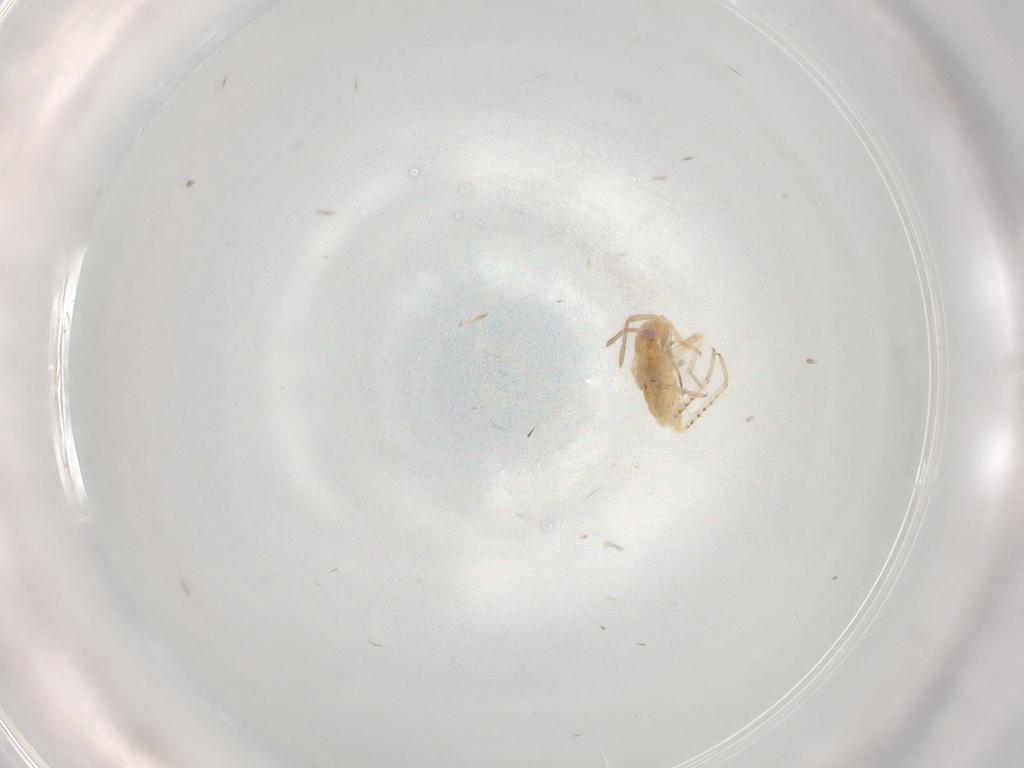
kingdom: Animalia
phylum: Arthropoda
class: Insecta
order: Hemiptera
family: Miridae
